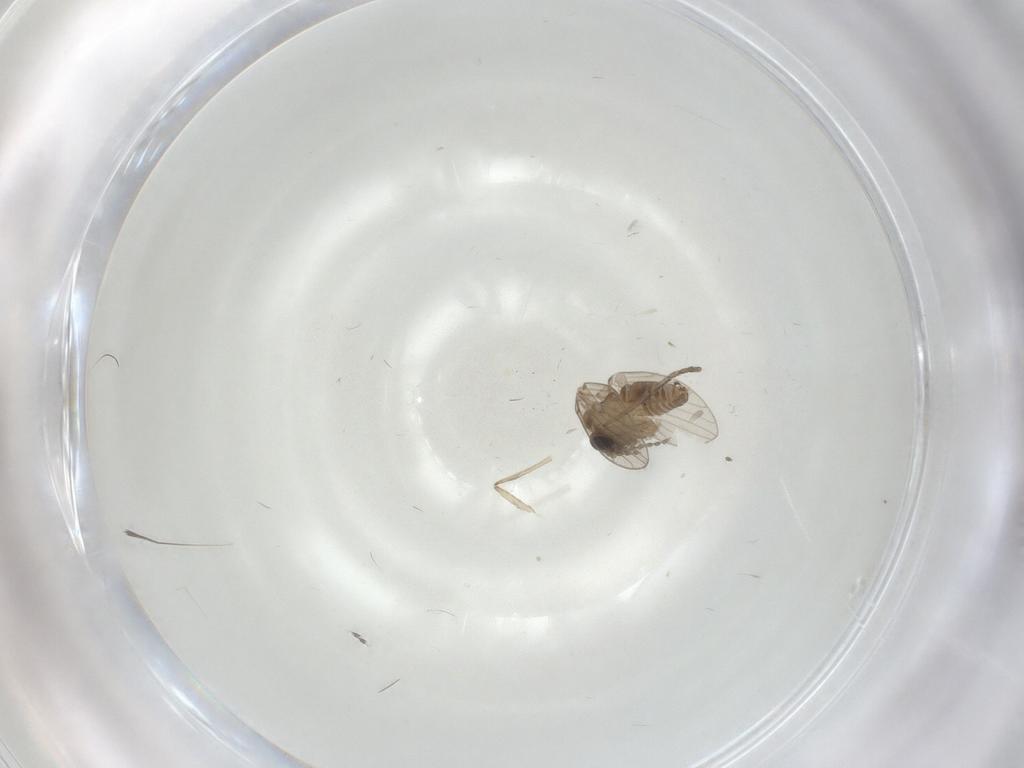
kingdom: Animalia
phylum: Arthropoda
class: Insecta
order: Diptera
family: Psychodidae
